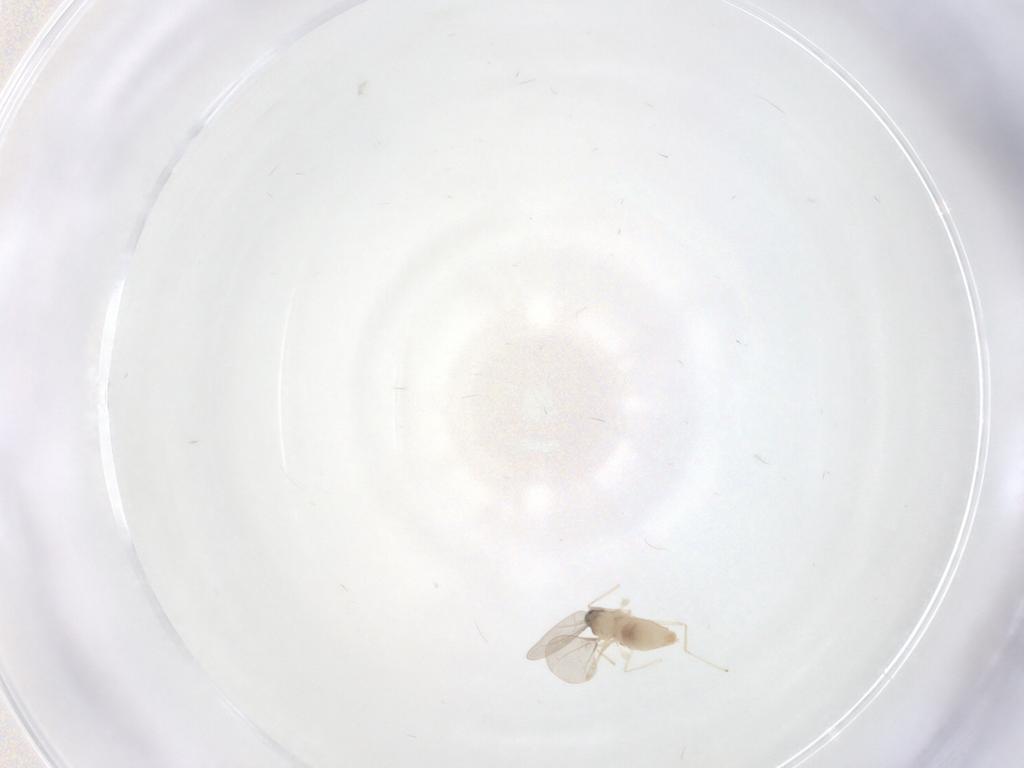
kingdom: Animalia
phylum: Arthropoda
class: Insecta
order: Diptera
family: Cecidomyiidae
